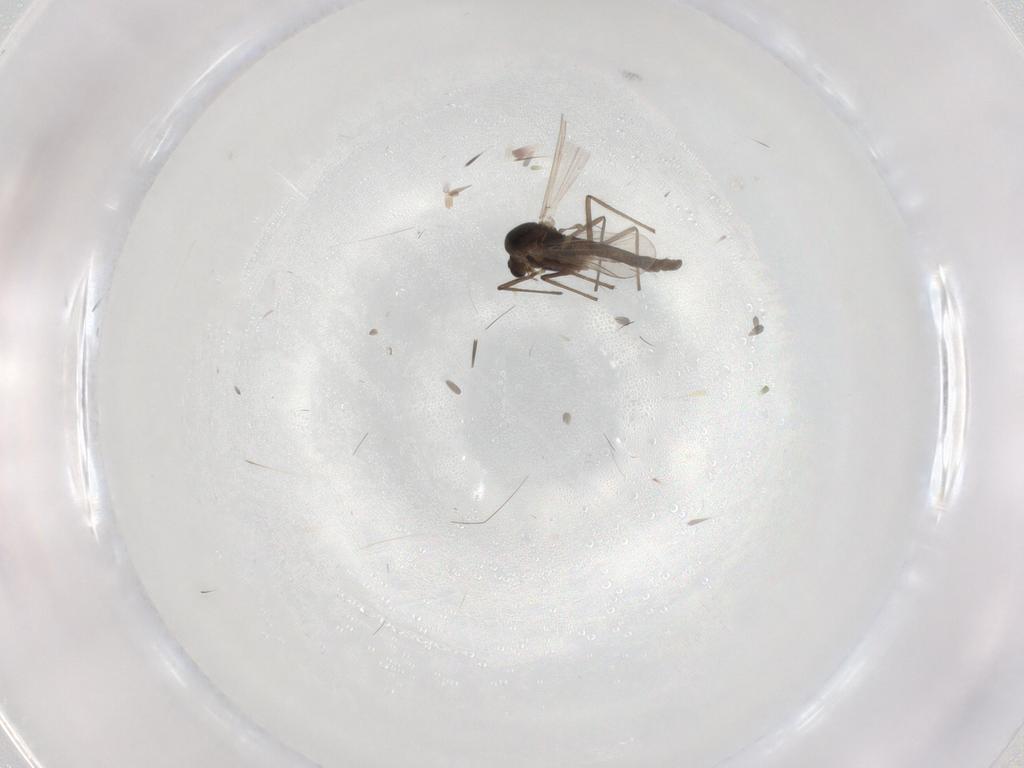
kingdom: Animalia
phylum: Arthropoda
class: Insecta
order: Diptera
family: Chironomidae
